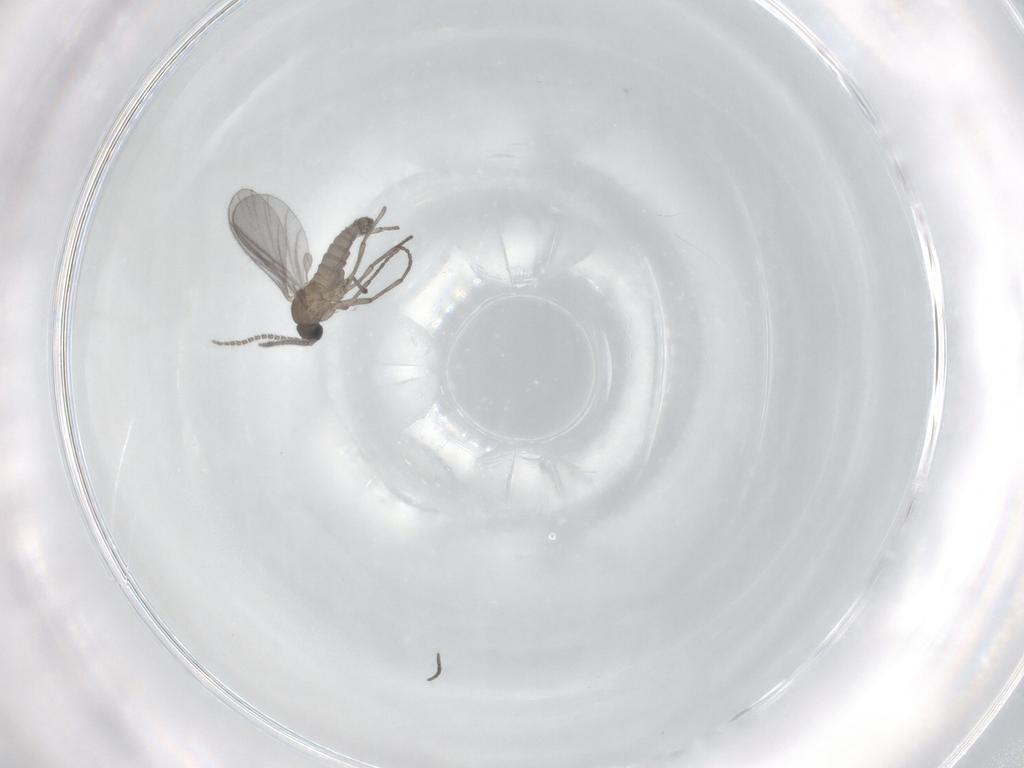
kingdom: Animalia
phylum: Arthropoda
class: Insecta
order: Diptera
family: Sciaridae
